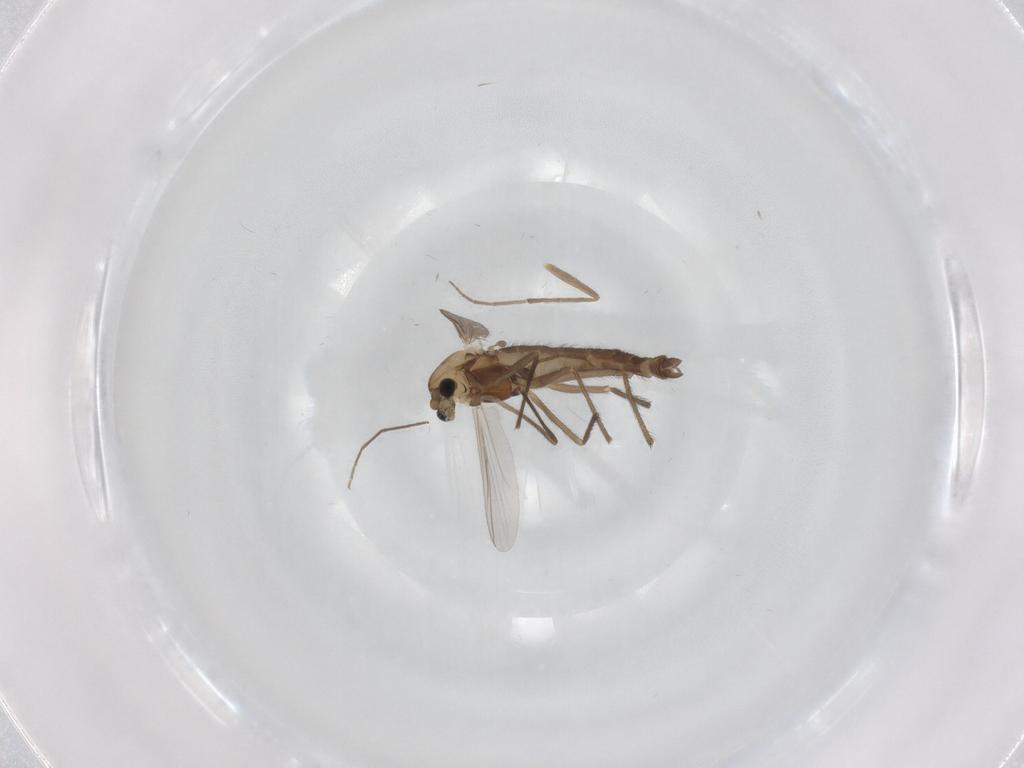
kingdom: Animalia
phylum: Arthropoda
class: Insecta
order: Diptera
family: Chironomidae
